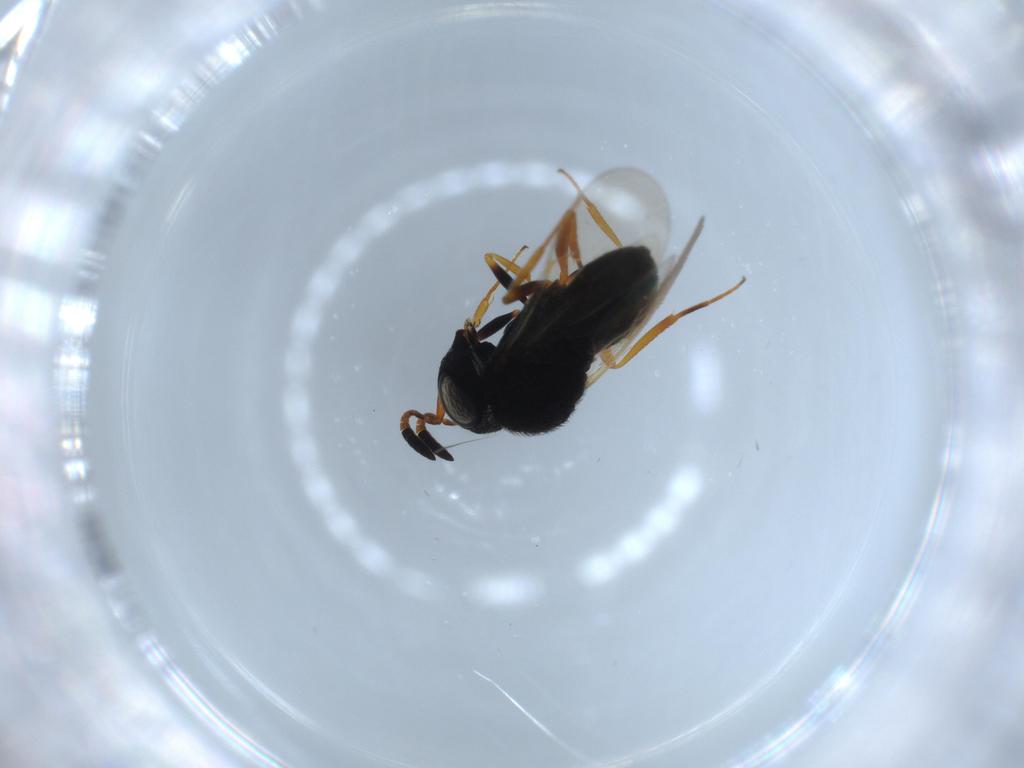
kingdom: Animalia
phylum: Arthropoda
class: Insecta
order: Hymenoptera
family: Scelionidae
